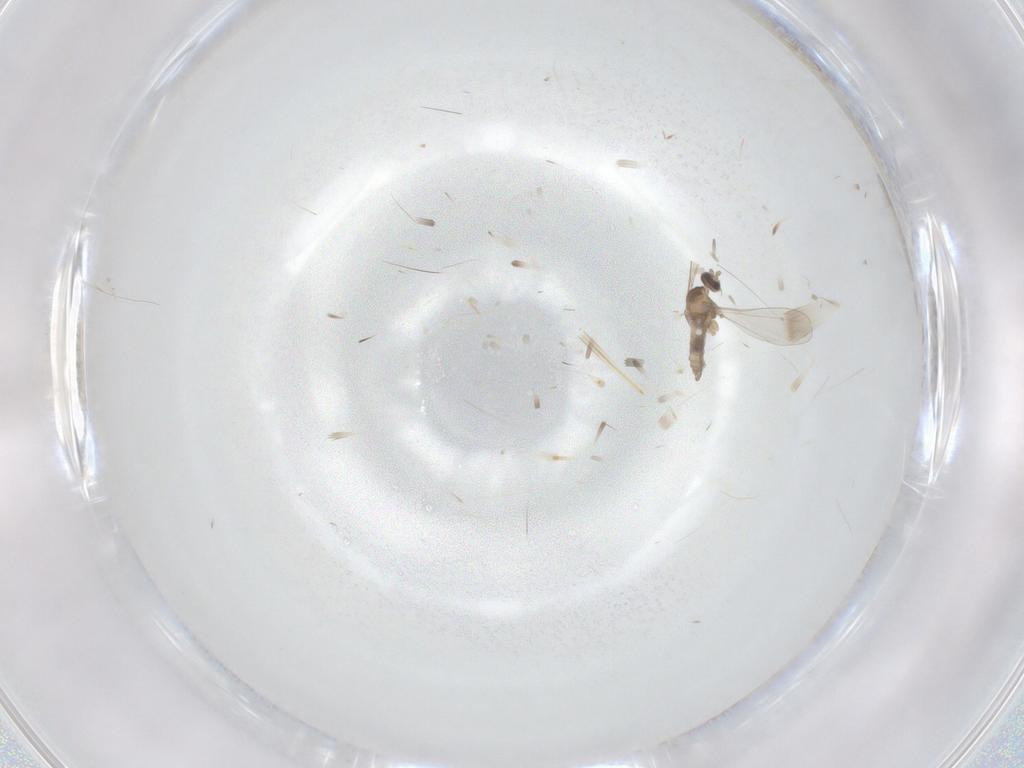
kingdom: Animalia
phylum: Arthropoda
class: Insecta
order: Diptera
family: Cecidomyiidae
